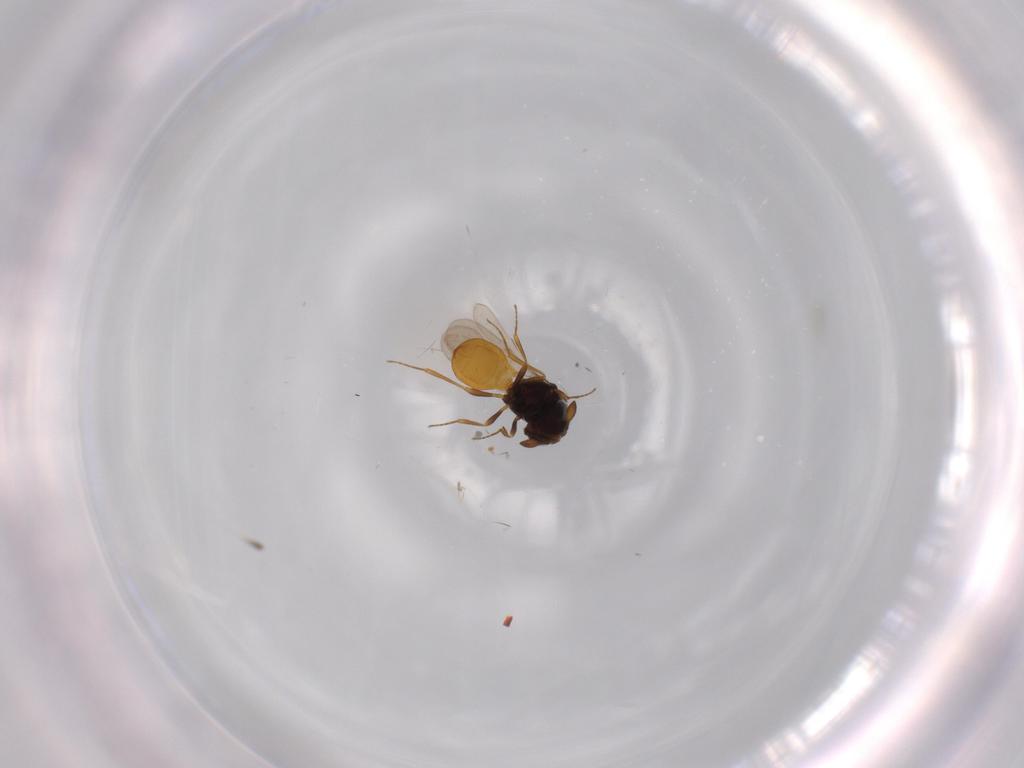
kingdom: Animalia
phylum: Arthropoda
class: Insecta
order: Hymenoptera
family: Scelionidae
